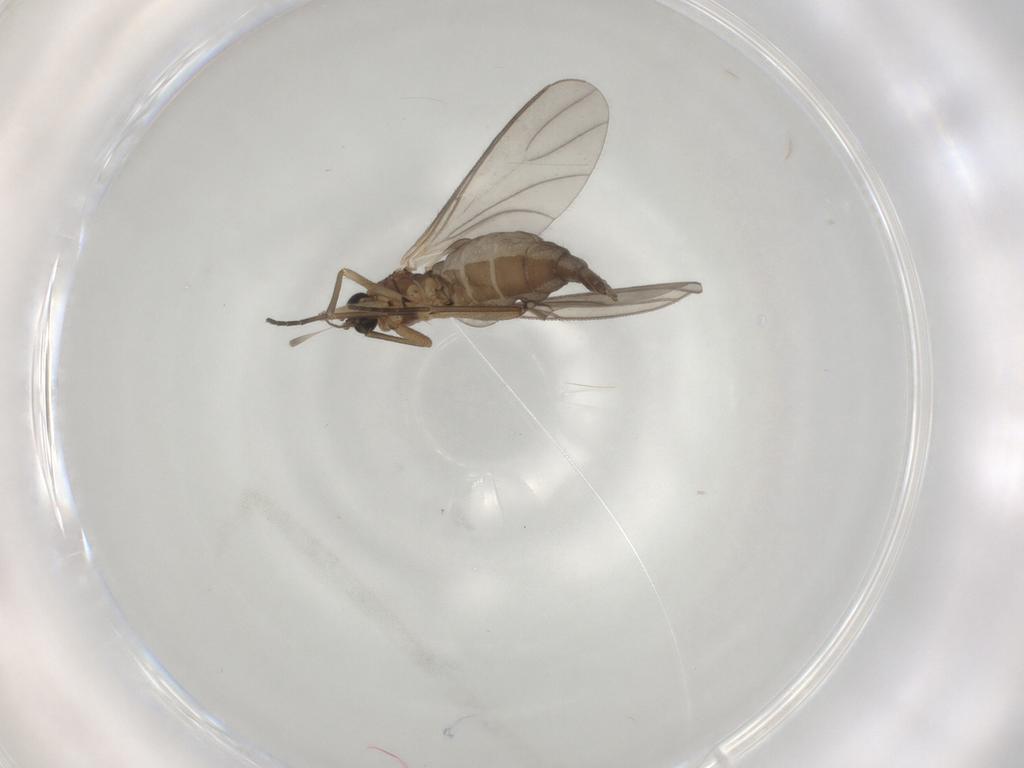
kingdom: Animalia
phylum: Arthropoda
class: Insecta
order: Diptera
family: Sciaridae
